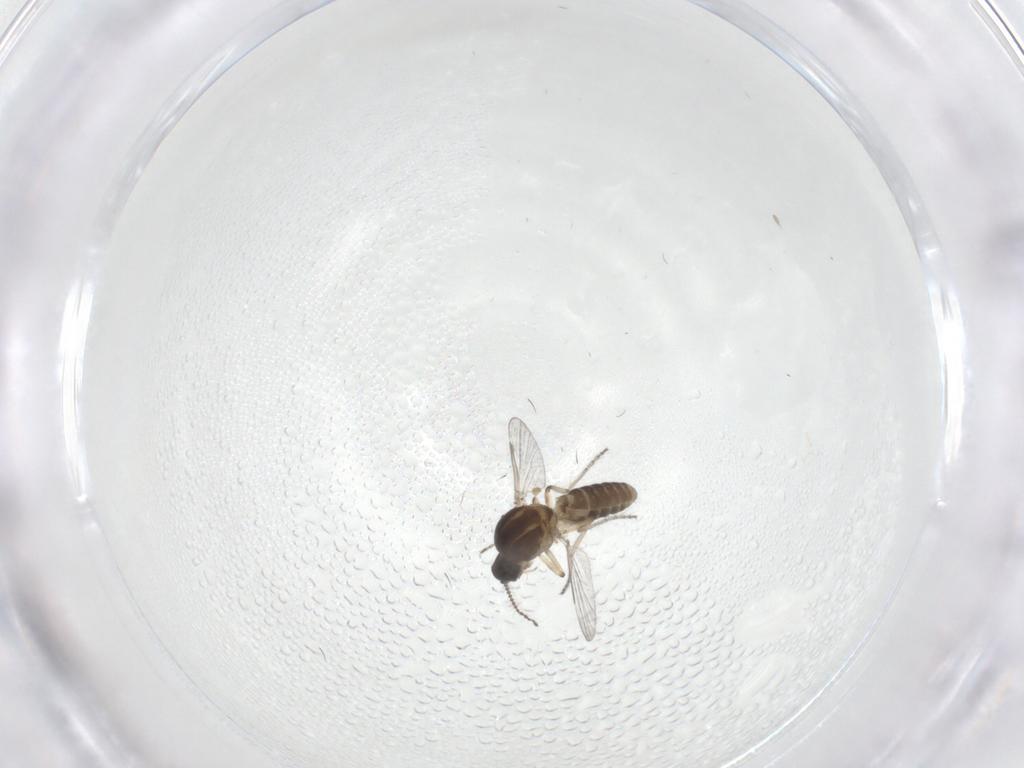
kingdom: Animalia
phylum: Arthropoda
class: Insecta
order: Diptera
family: Ceratopogonidae
